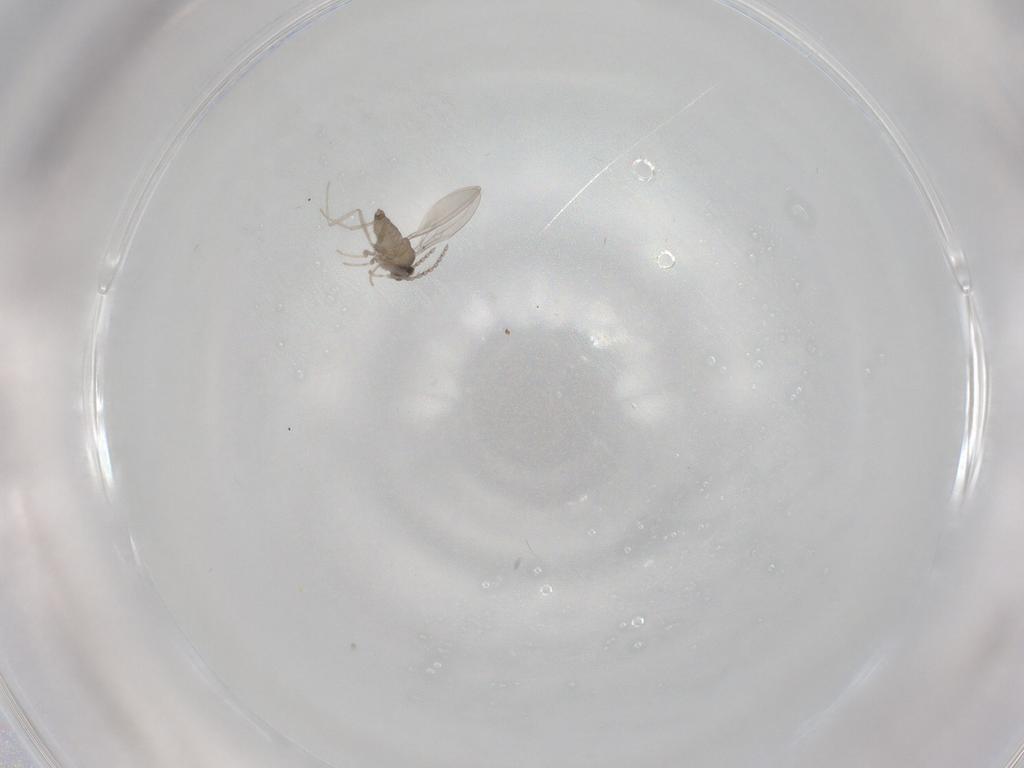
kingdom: Animalia
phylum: Arthropoda
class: Insecta
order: Diptera
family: Cecidomyiidae
